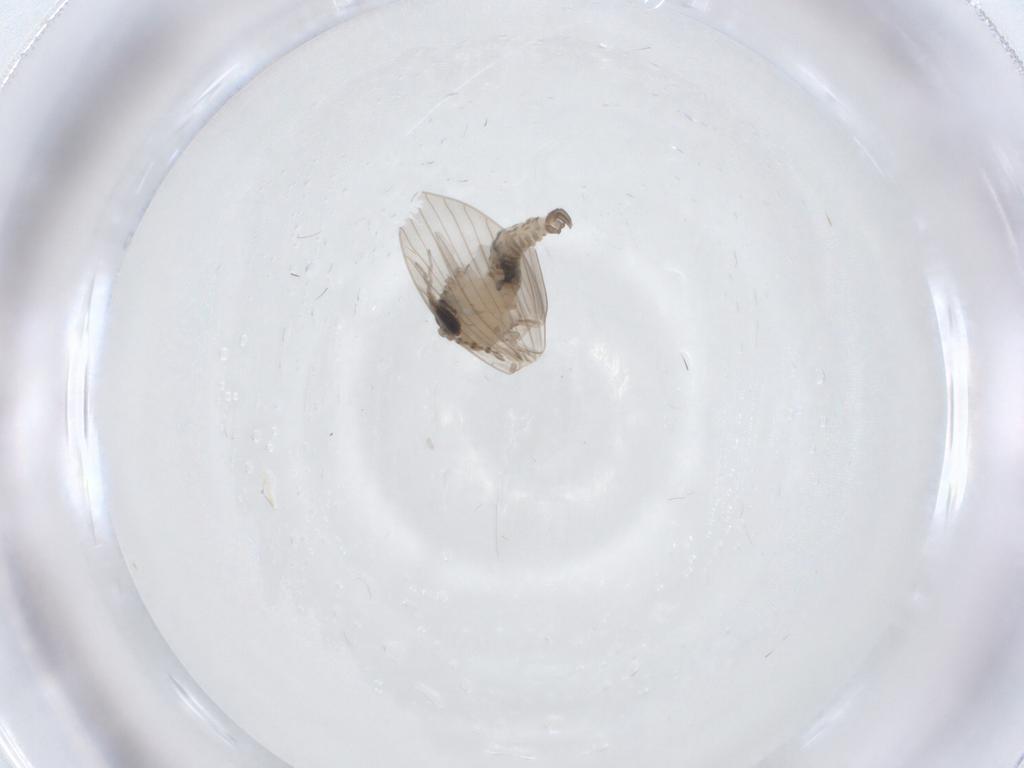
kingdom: Animalia
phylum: Arthropoda
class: Insecta
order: Diptera
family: Psychodidae
